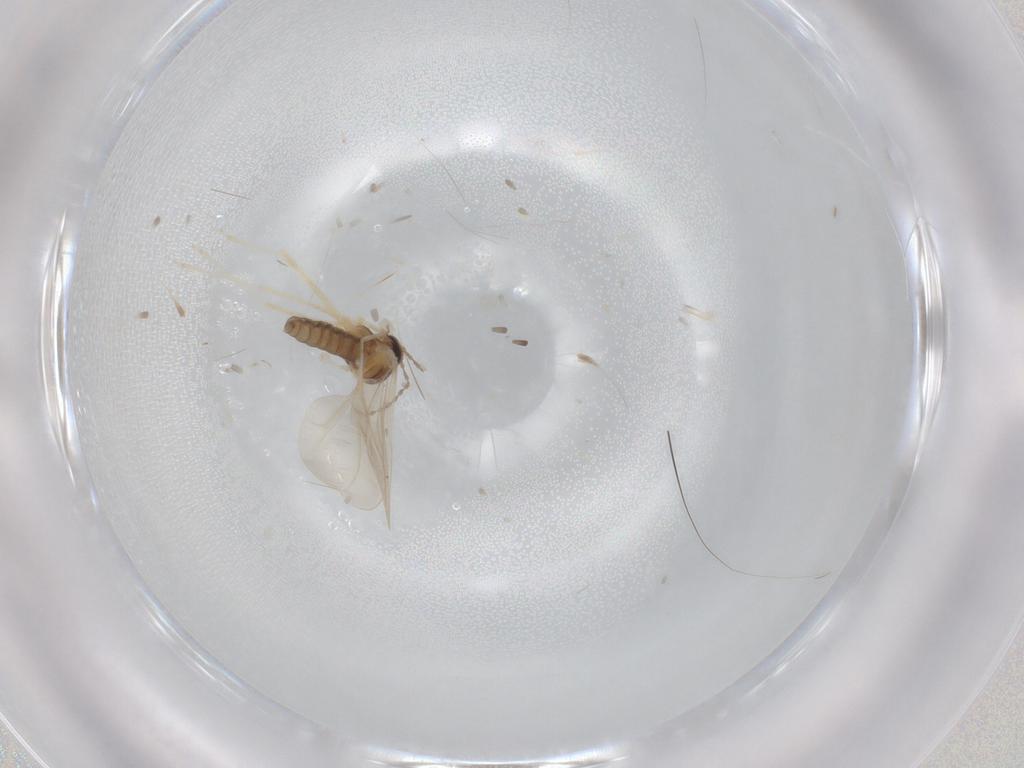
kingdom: Animalia
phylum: Arthropoda
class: Insecta
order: Diptera
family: Cecidomyiidae
